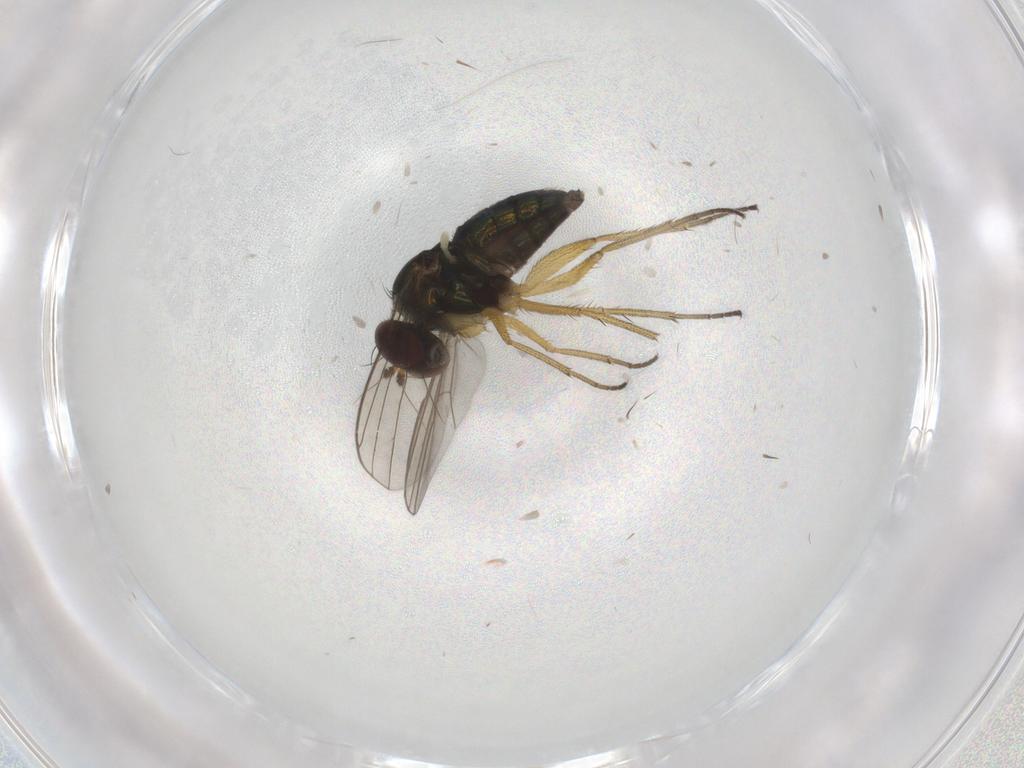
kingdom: Animalia
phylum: Arthropoda
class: Insecta
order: Diptera
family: Dolichopodidae
